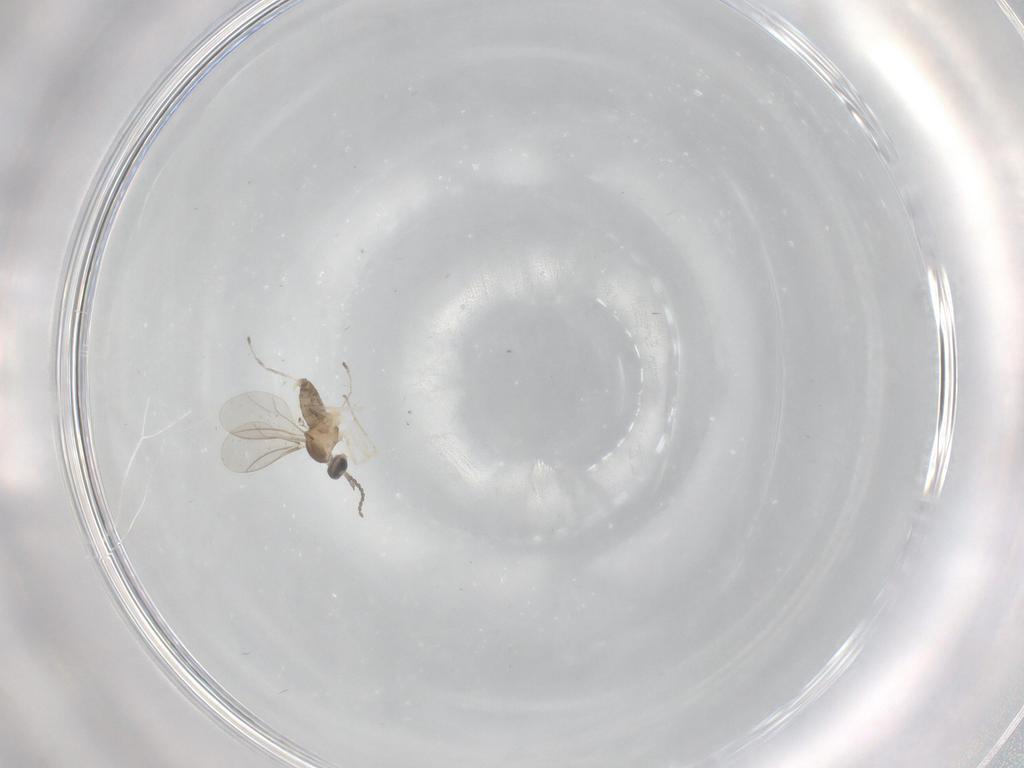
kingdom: Animalia
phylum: Arthropoda
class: Insecta
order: Diptera
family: Cecidomyiidae
